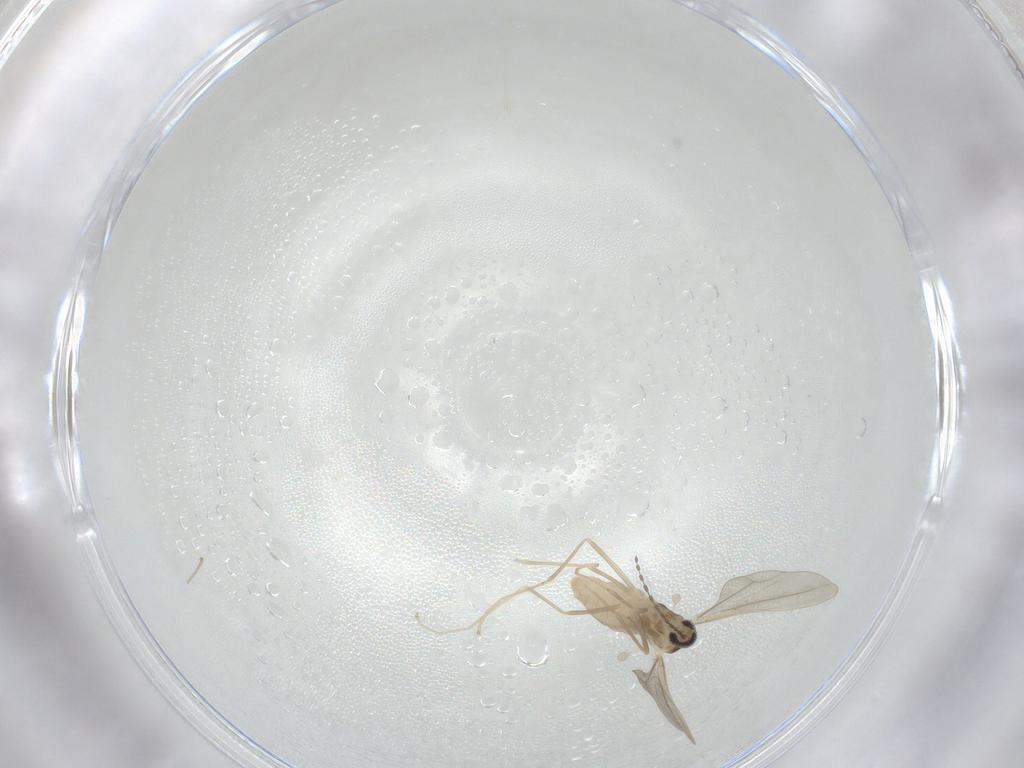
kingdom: Animalia
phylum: Arthropoda
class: Insecta
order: Diptera
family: Cecidomyiidae
